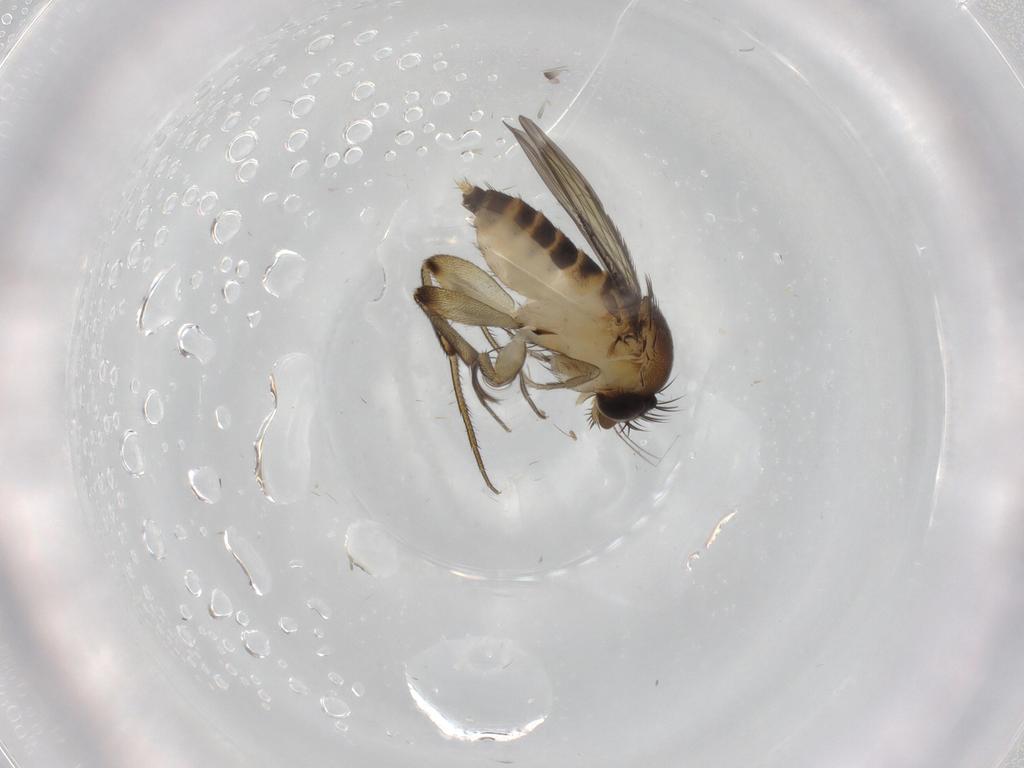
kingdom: Animalia
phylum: Arthropoda
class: Insecta
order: Diptera
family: Phoridae
